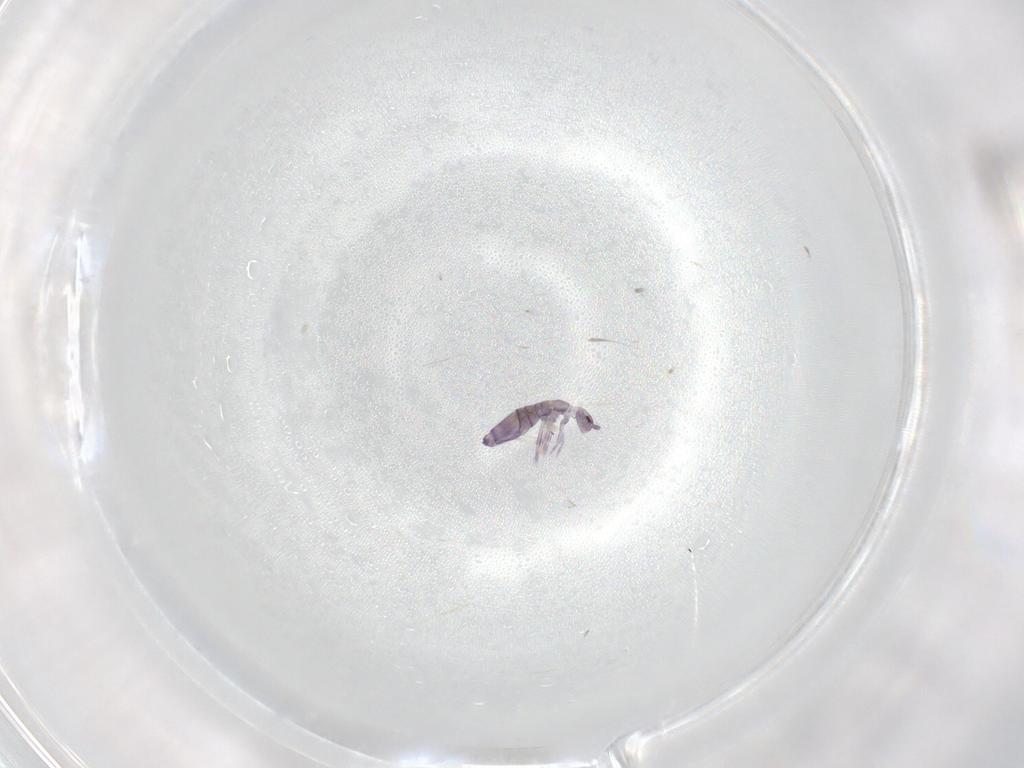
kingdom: Animalia
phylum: Arthropoda
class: Collembola
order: Entomobryomorpha
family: Entomobryidae
